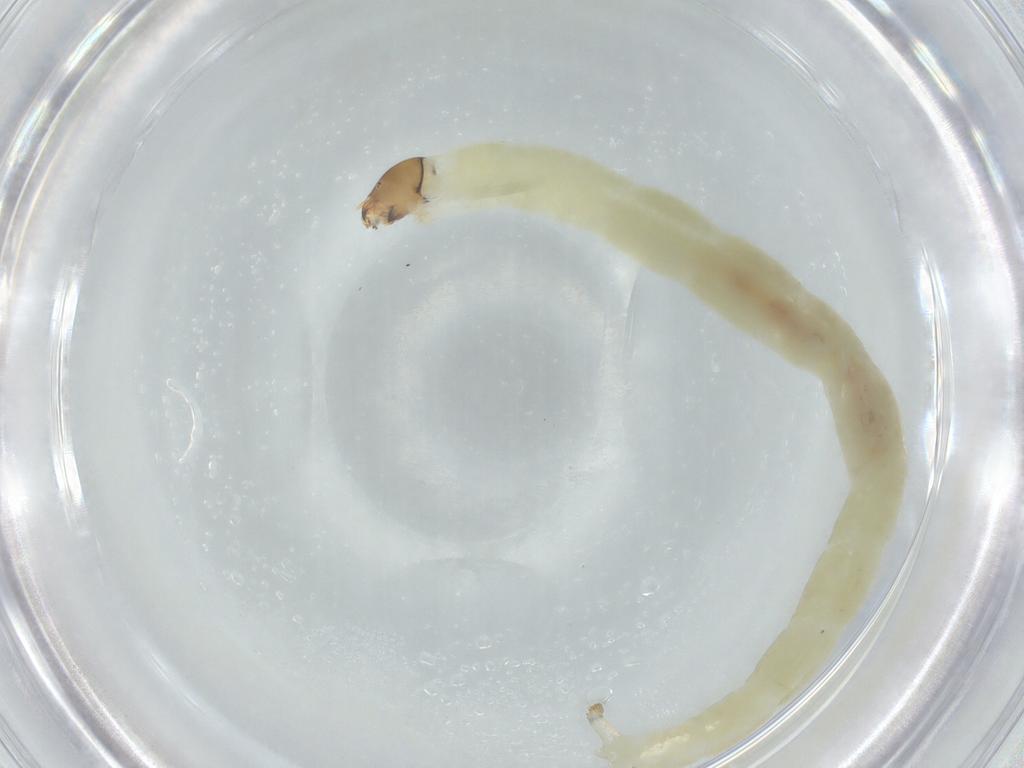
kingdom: Animalia
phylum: Arthropoda
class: Insecta
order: Diptera
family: Chironomidae
